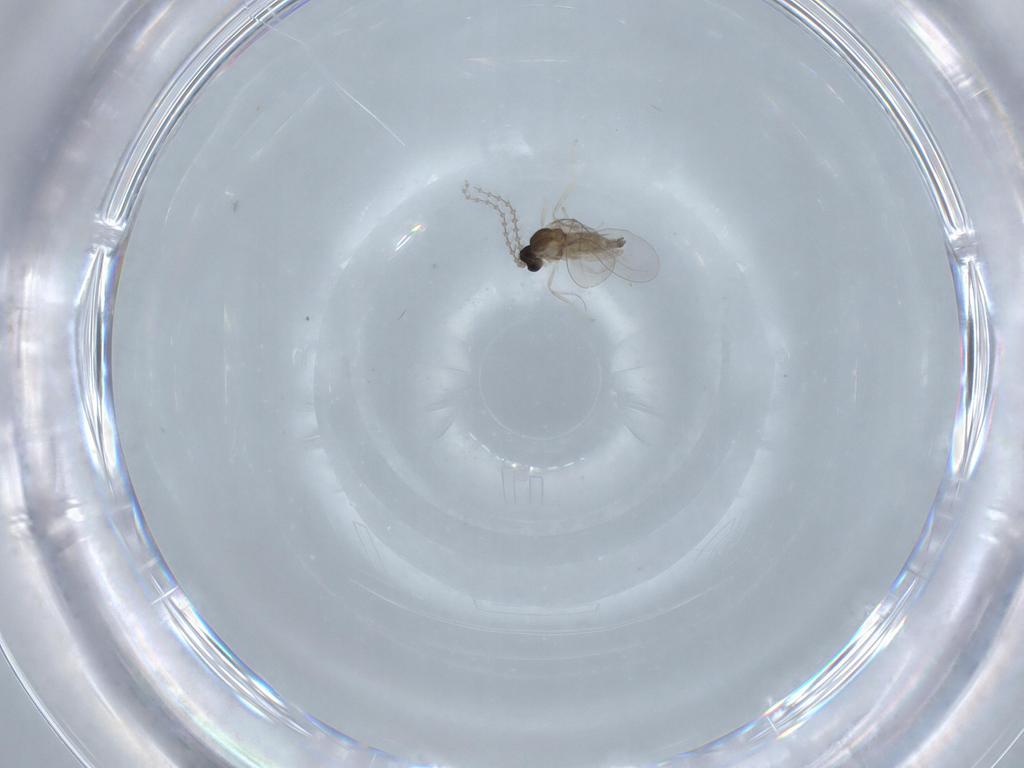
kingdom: Animalia
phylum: Arthropoda
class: Insecta
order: Diptera
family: Cecidomyiidae
